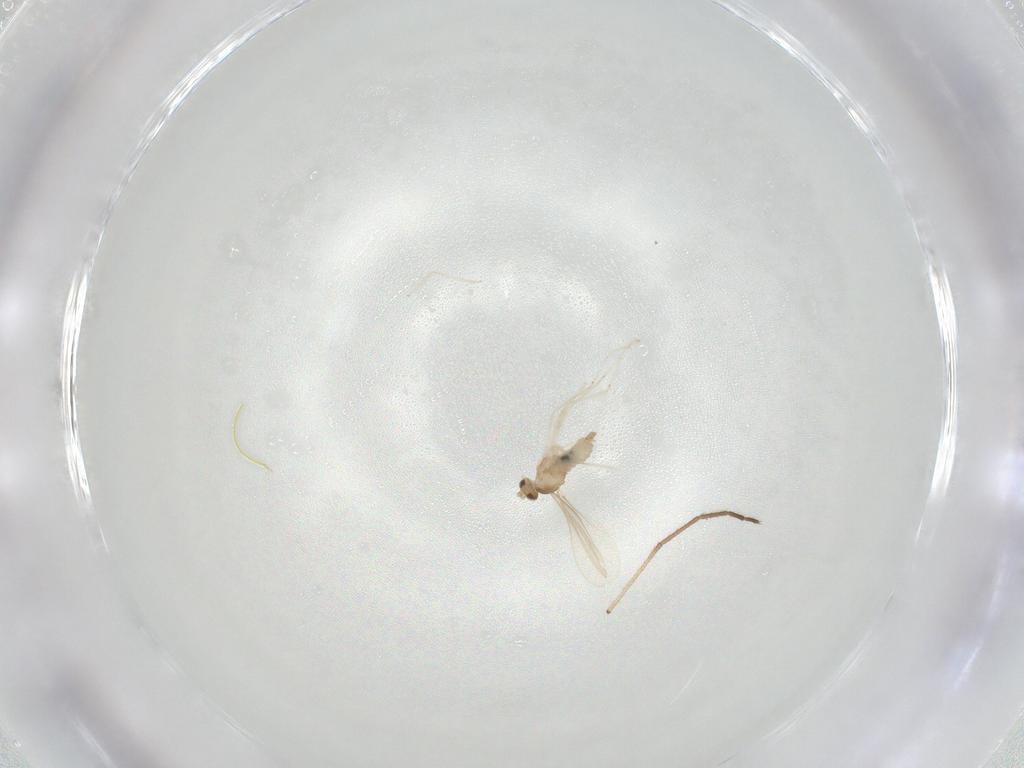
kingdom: Animalia
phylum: Arthropoda
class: Insecta
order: Diptera
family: Cecidomyiidae
